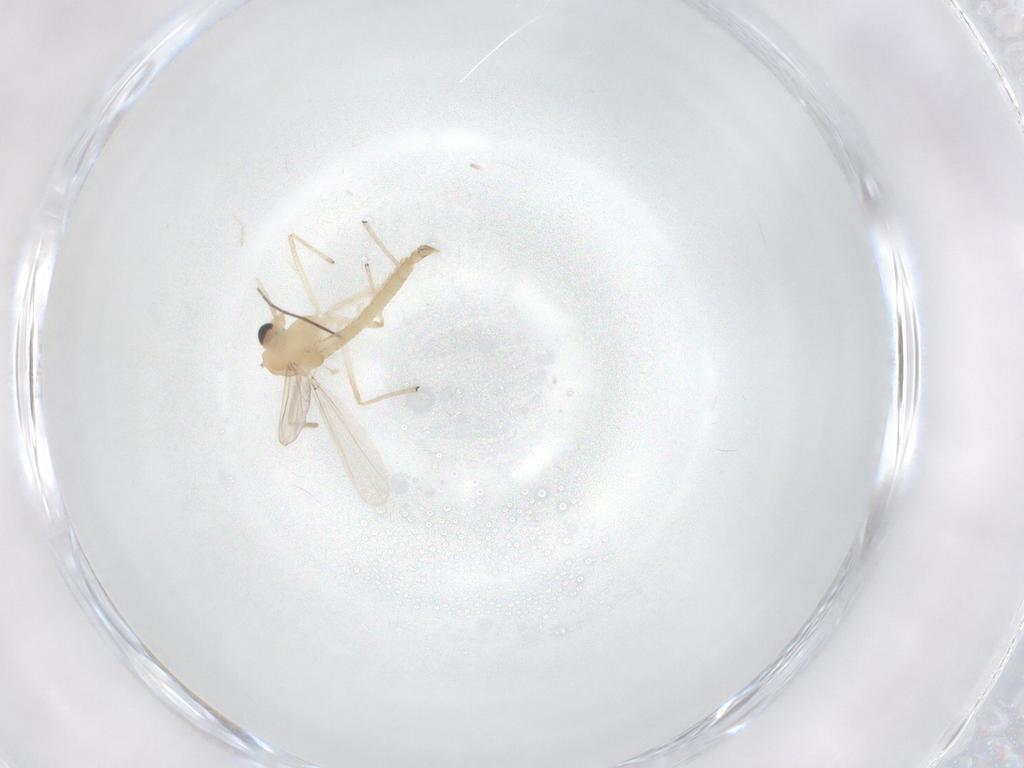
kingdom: Animalia
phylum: Arthropoda
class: Insecta
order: Diptera
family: Chironomidae
